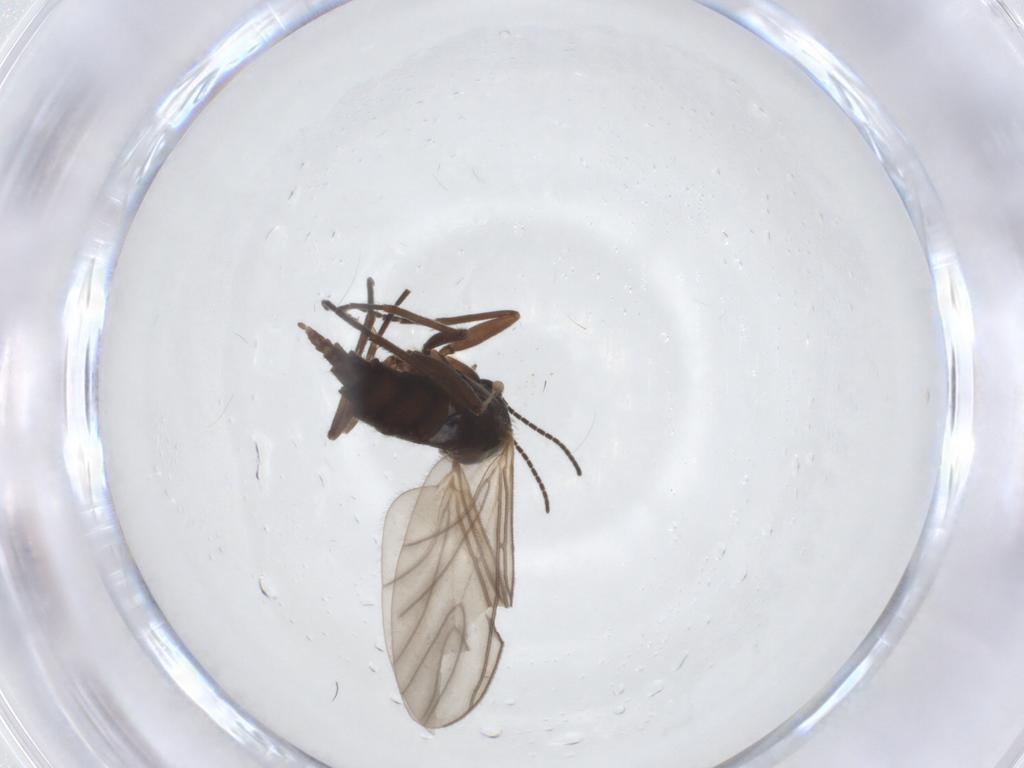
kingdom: Animalia
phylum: Arthropoda
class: Insecta
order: Diptera
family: Sciaridae
